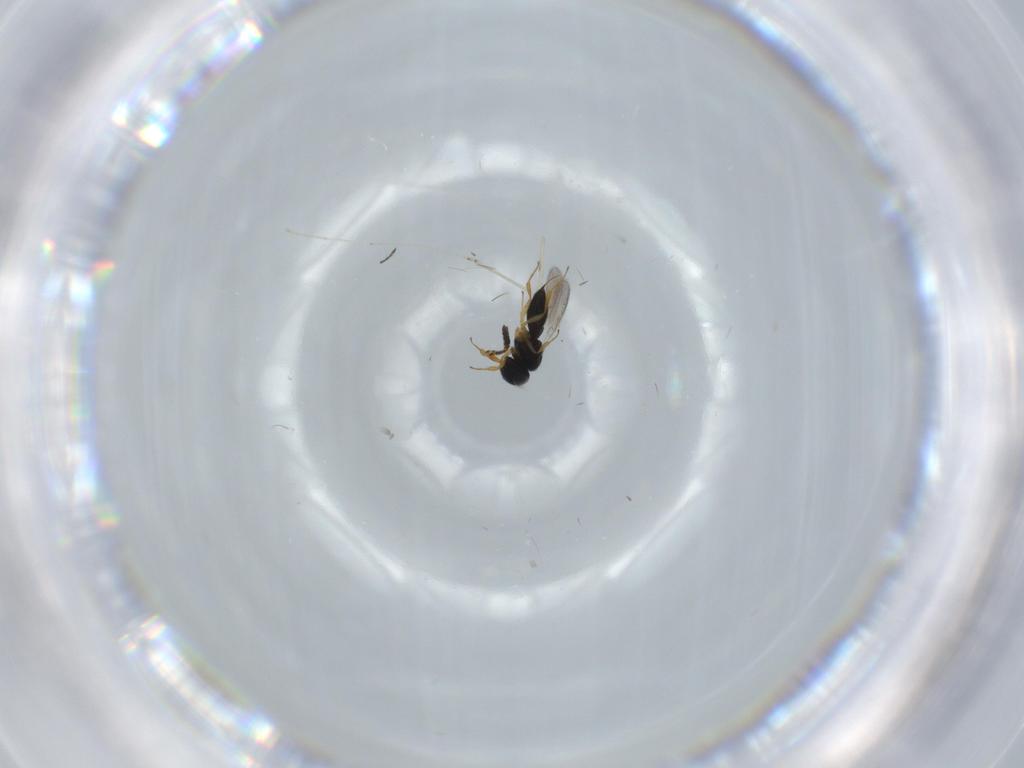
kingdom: Animalia
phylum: Arthropoda
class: Insecta
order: Hymenoptera
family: Scelionidae
